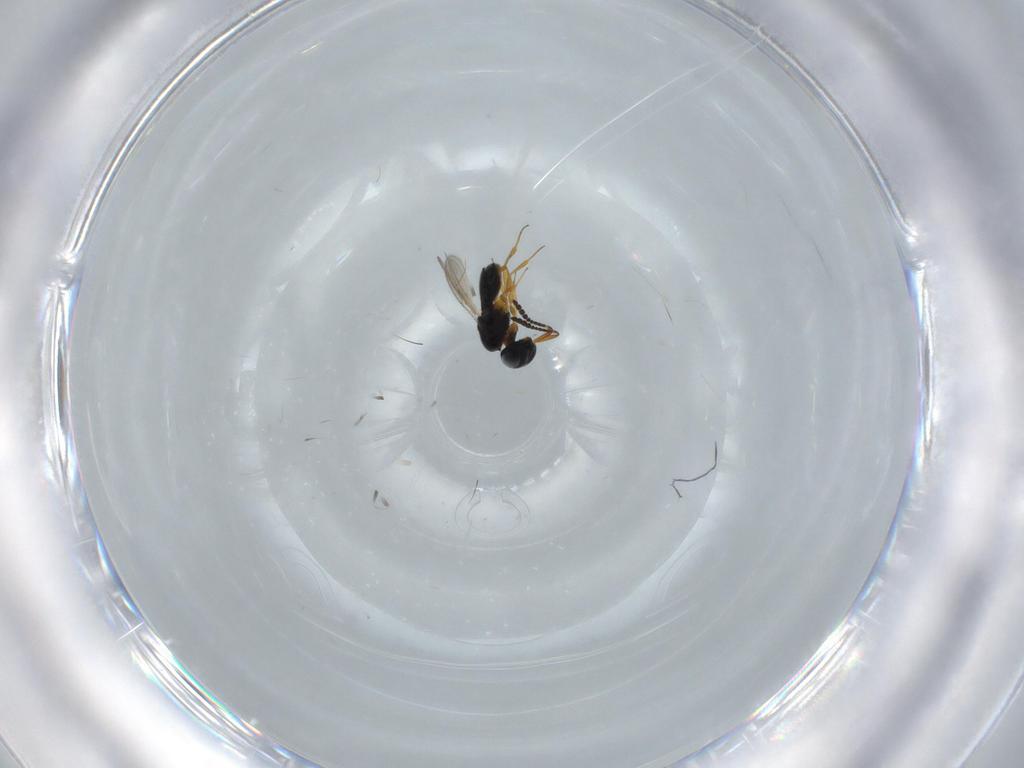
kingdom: Animalia
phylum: Arthropoda
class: Insecta
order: Hymenoptera
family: Scelionidae
